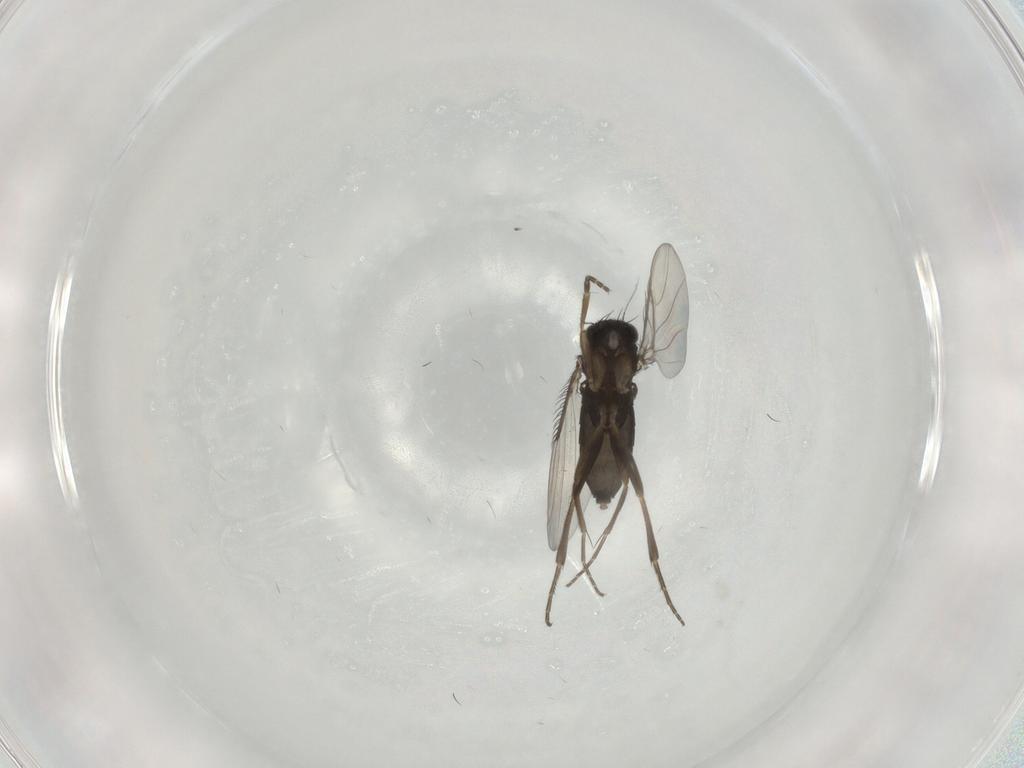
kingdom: Animalia
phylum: Arthropoda
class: Insecta
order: Diptera
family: Phoridae
